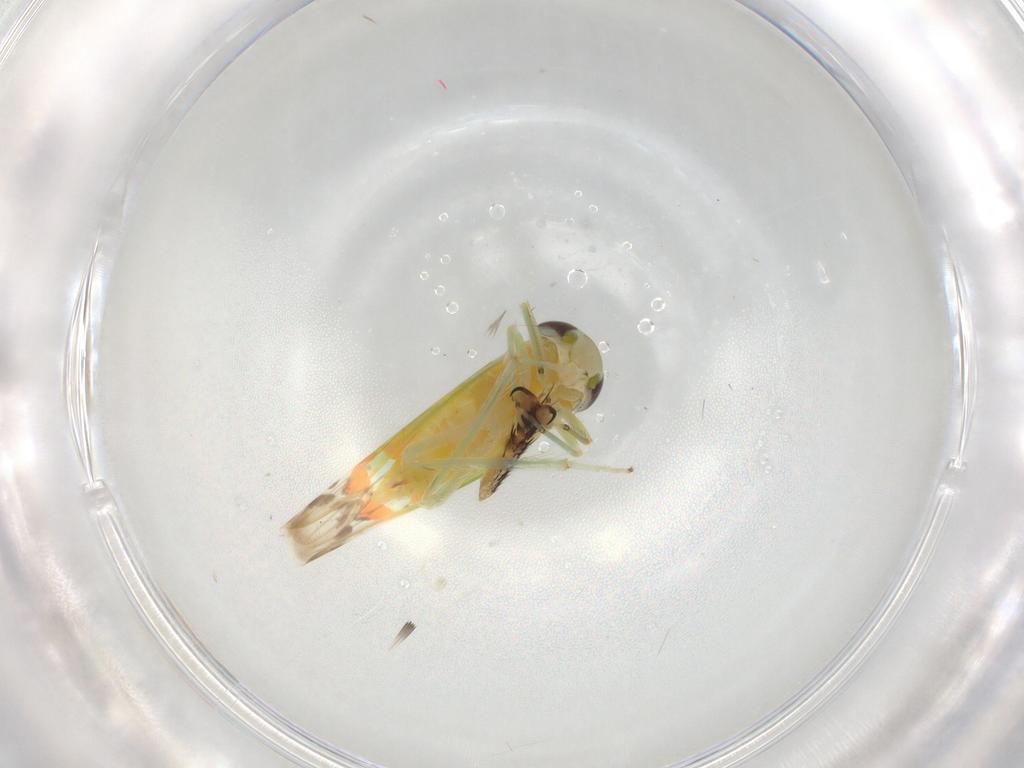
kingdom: Animalia
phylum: Arthropoda
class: Insecta
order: Hemiptera
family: Cicadellidae
